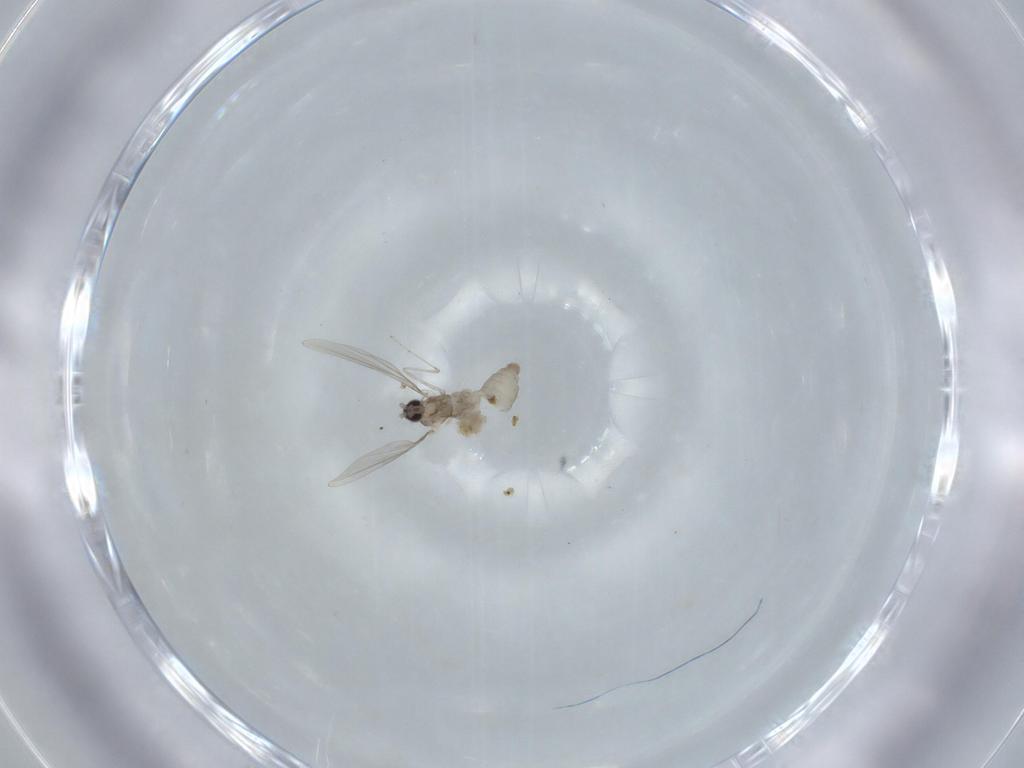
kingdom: Animalia
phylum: Arthropoda
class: Insecta
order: Diptera
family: Cecidomyiidae
